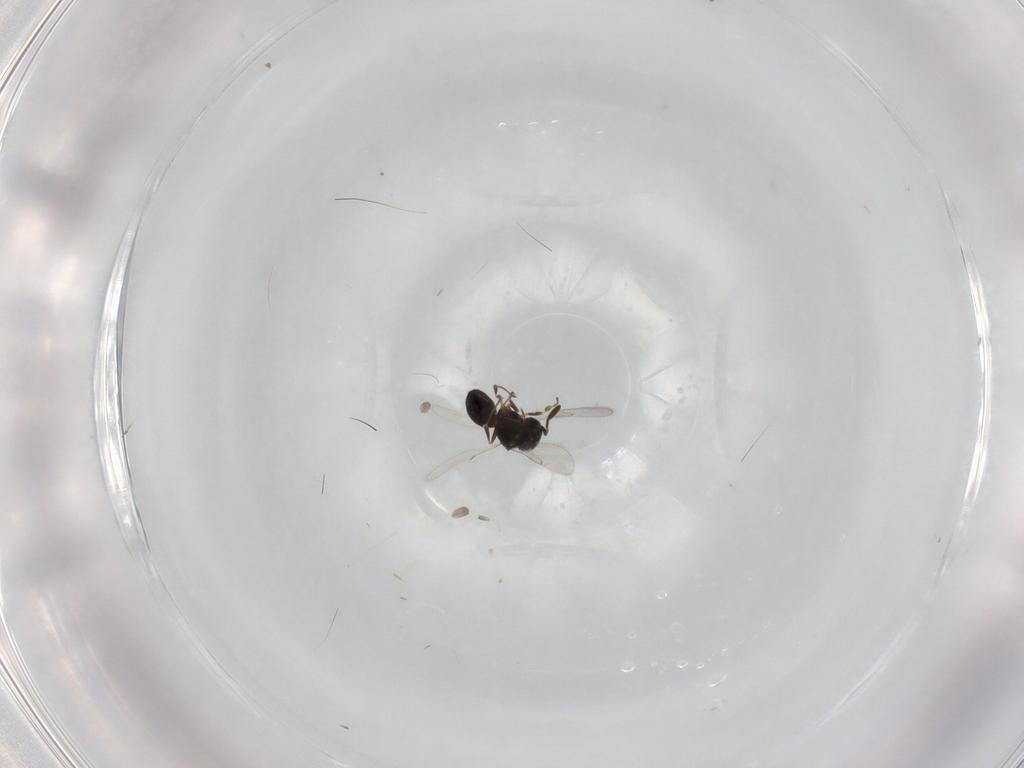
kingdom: Animalia
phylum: Arthropoda
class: Insecta
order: Hymenoptera
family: Scelionidae
